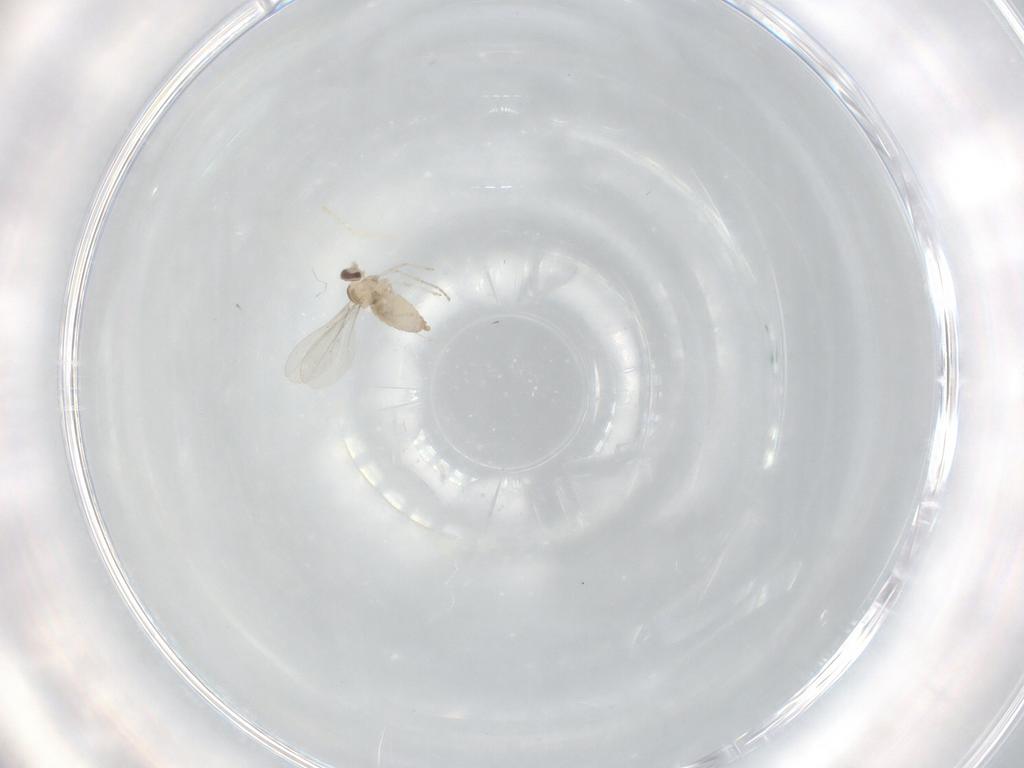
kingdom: Animalia
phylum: Arthropoda
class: Insecta
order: Diptera
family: Cecidomyiidae
